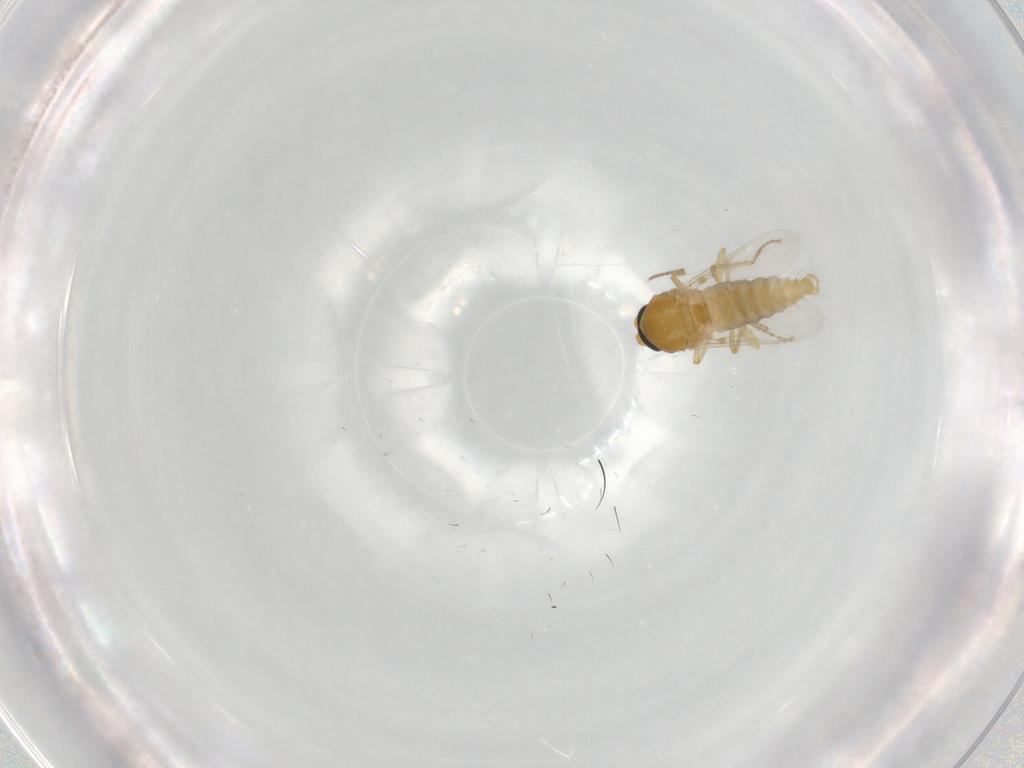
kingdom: Animalia
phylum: Arthropoda
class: Insecta
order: Diptera
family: Ceratopogonidae
